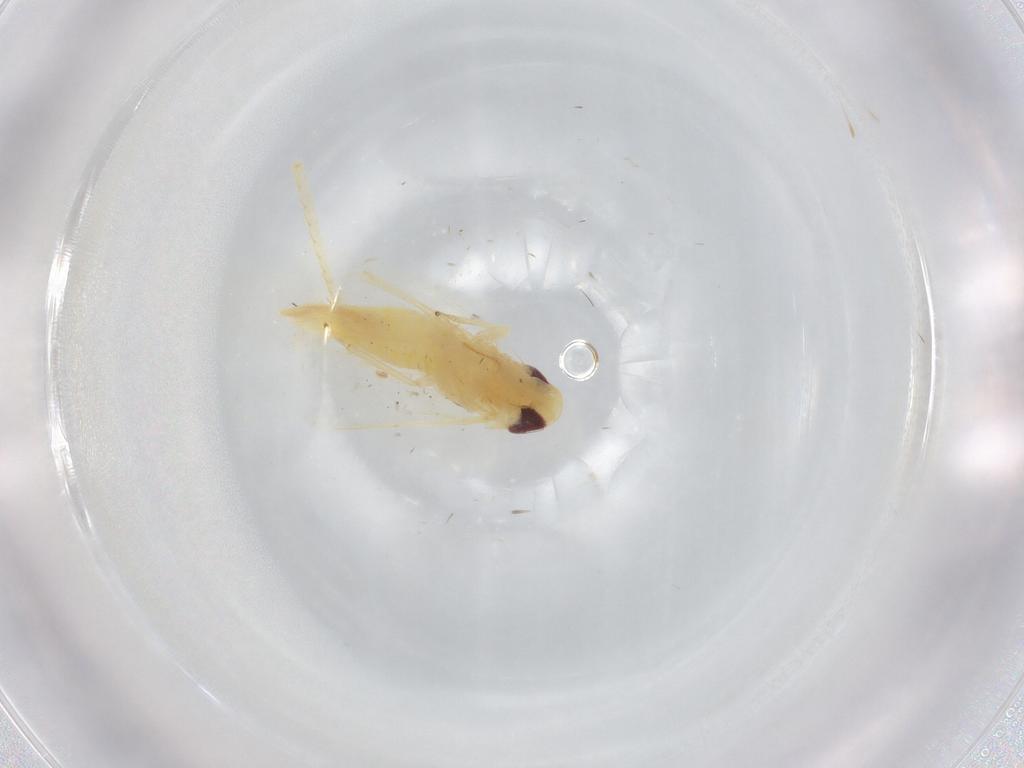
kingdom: Animalia
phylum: Arthropoda
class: Insecta
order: Hemiptera
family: Cicadellidae
